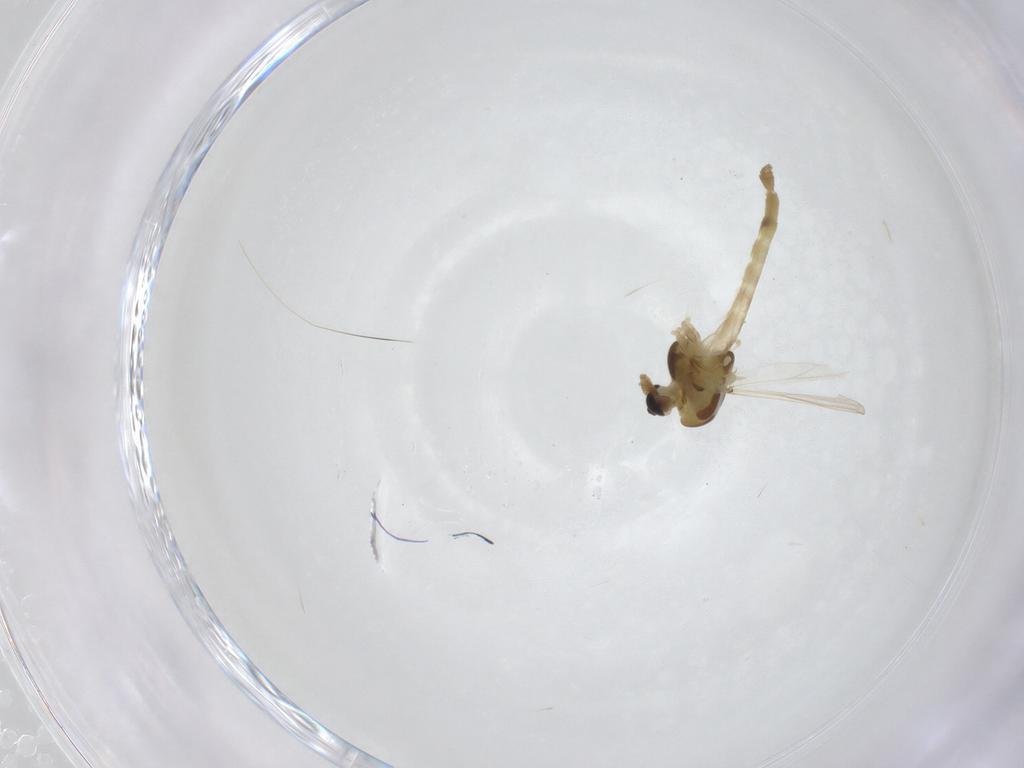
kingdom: Animalia
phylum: Arthropoda
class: Insecta
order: Diptera
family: Chironomidae
